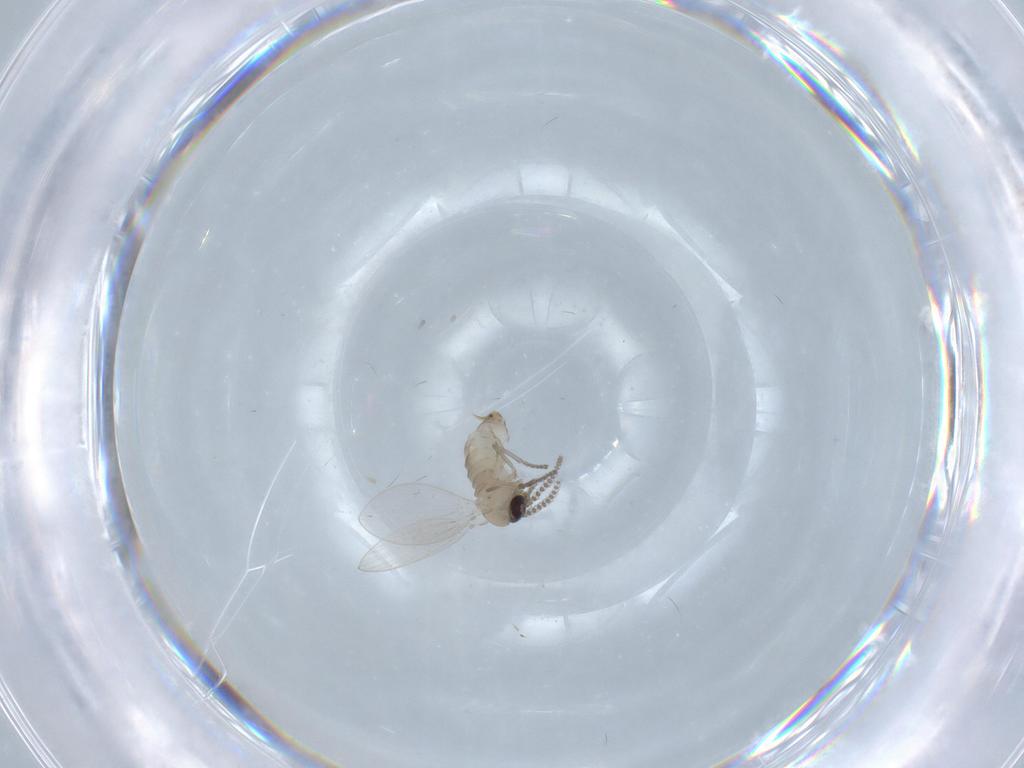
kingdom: Animalia
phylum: Arthropoda
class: Insecta
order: Diptera
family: Psychodidae
